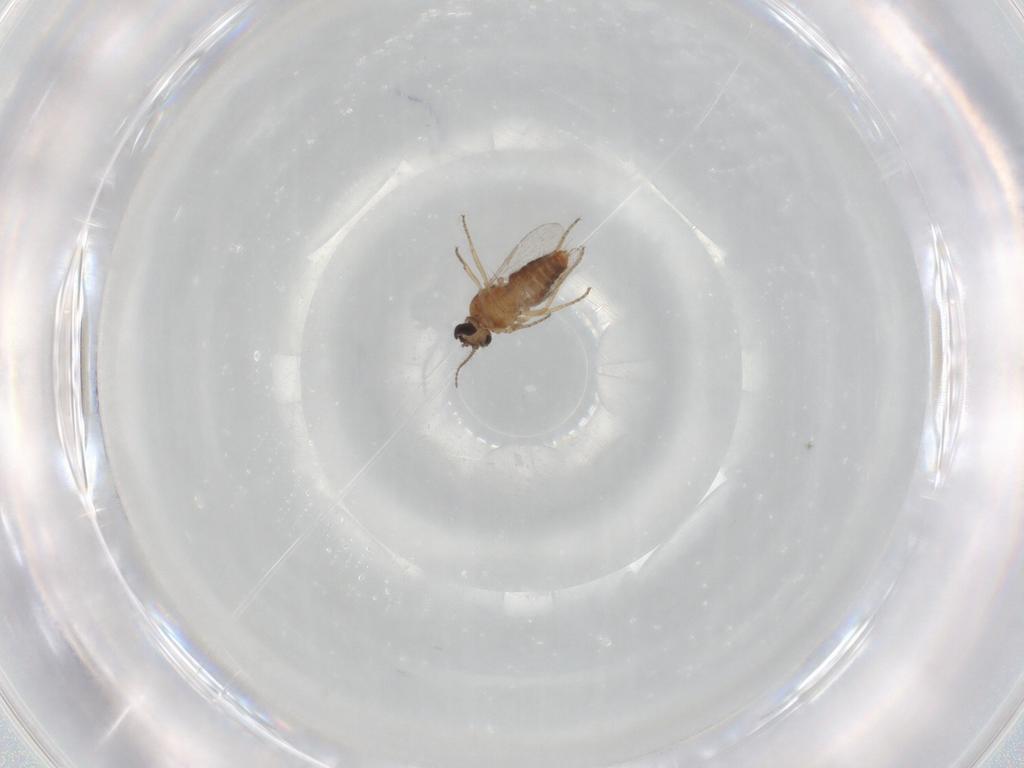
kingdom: Animalia
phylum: Arthropoda
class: Insecta
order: Diptera
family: Ceratopogonidae
